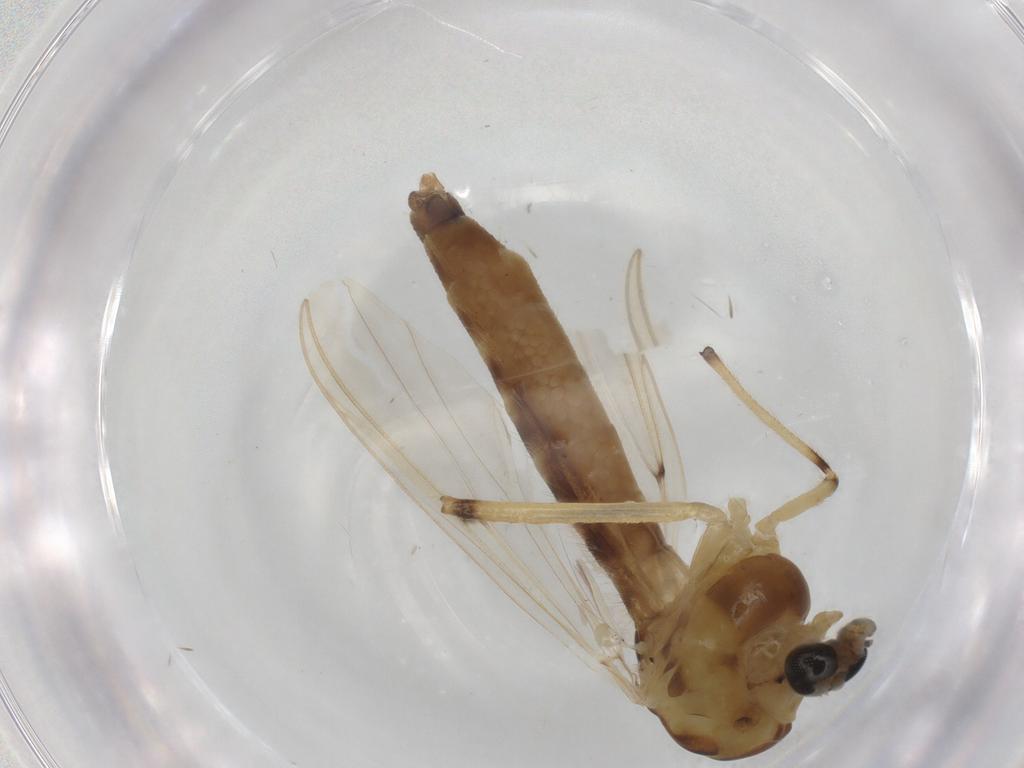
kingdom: Animalia
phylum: Arthropoda
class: Insecta
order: Diptera
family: Chironomidae
